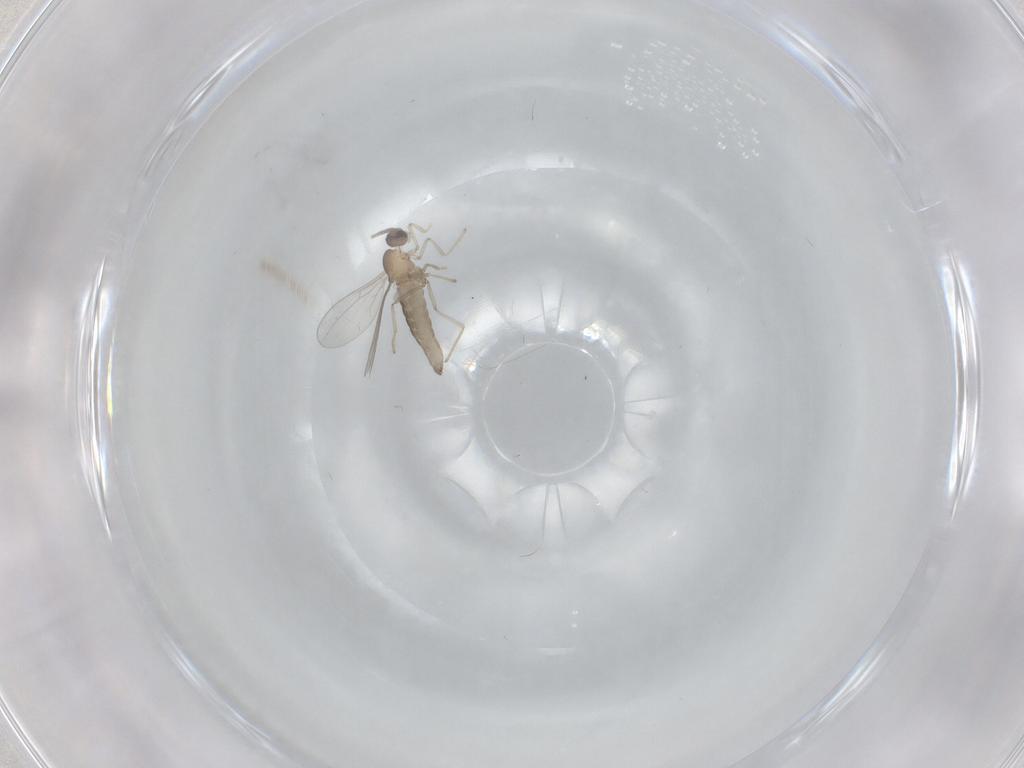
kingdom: Animalia
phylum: Arthropoda
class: Insecta
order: Diptera
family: Cecidomyiidae
